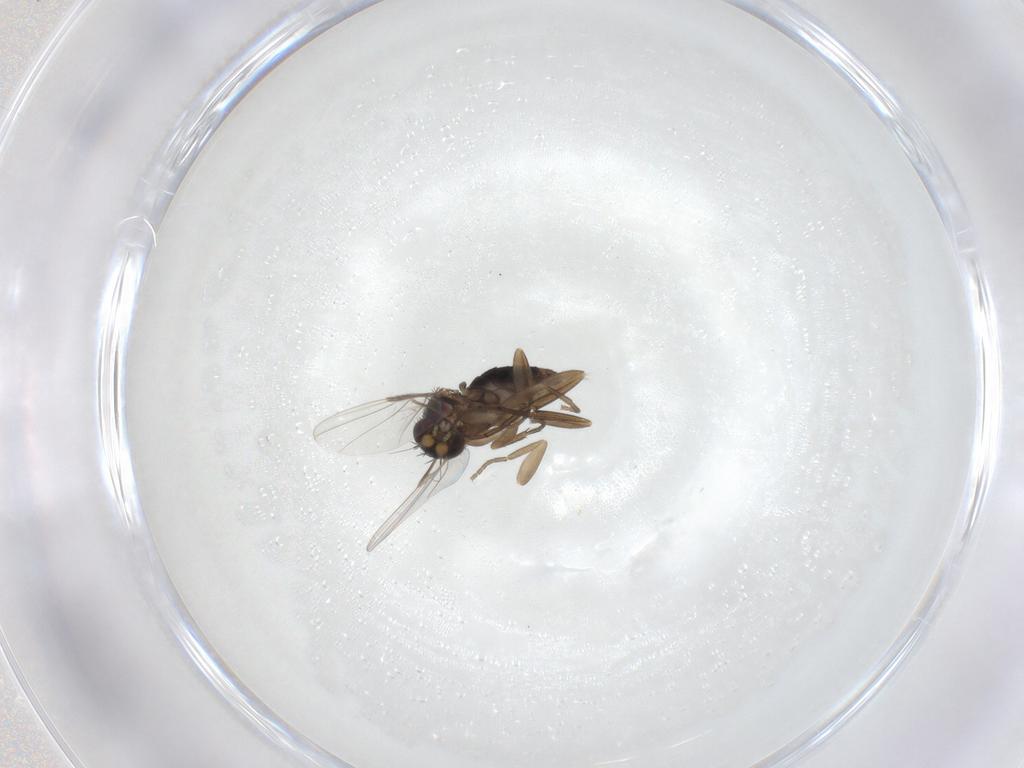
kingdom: Animalia
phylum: Arthropoda
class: Insecta
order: Diptera
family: Phoridae
